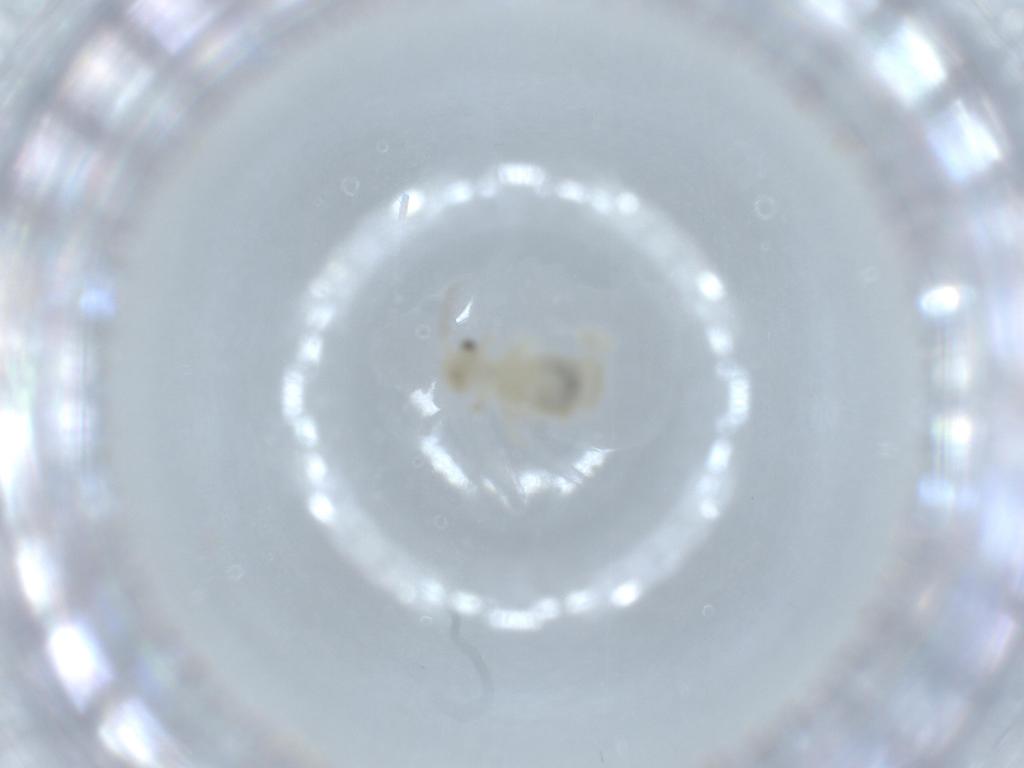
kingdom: Animalia
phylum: Arthropoda
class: Insecta
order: Psocodea
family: Caeciliusidae
